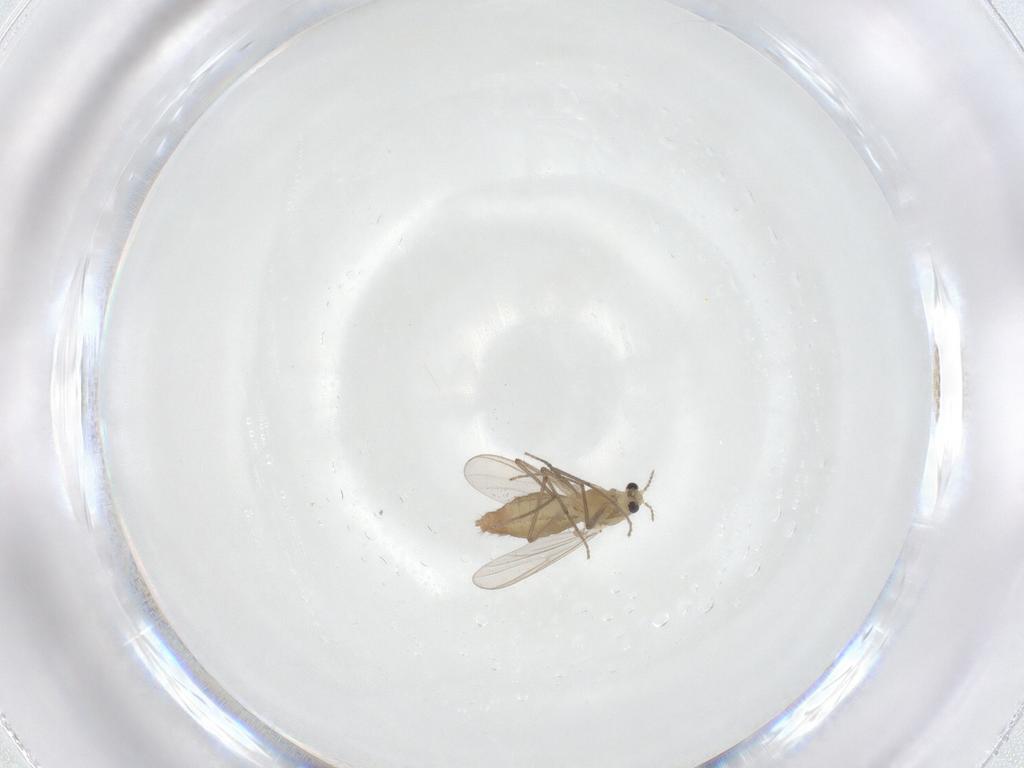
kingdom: Animalia
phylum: Arthropoda
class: Insecta
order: Diptera
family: Chironomidae
